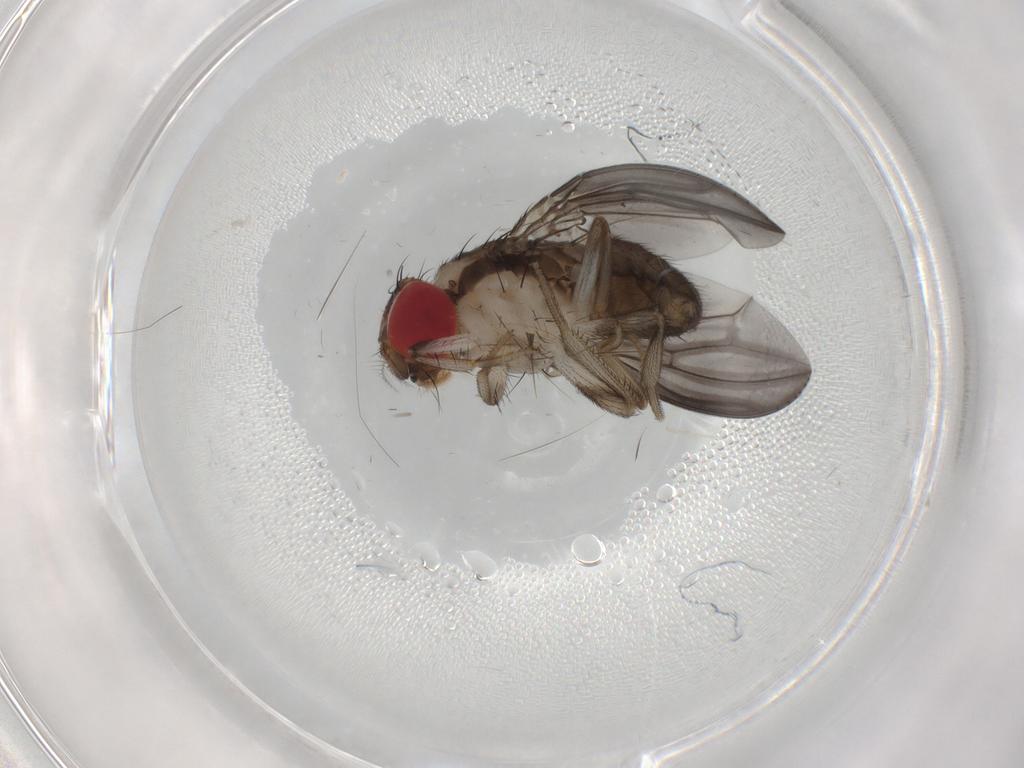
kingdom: Animalia
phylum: Arthropoda
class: Insecta
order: Diptera
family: Drosophilidae
